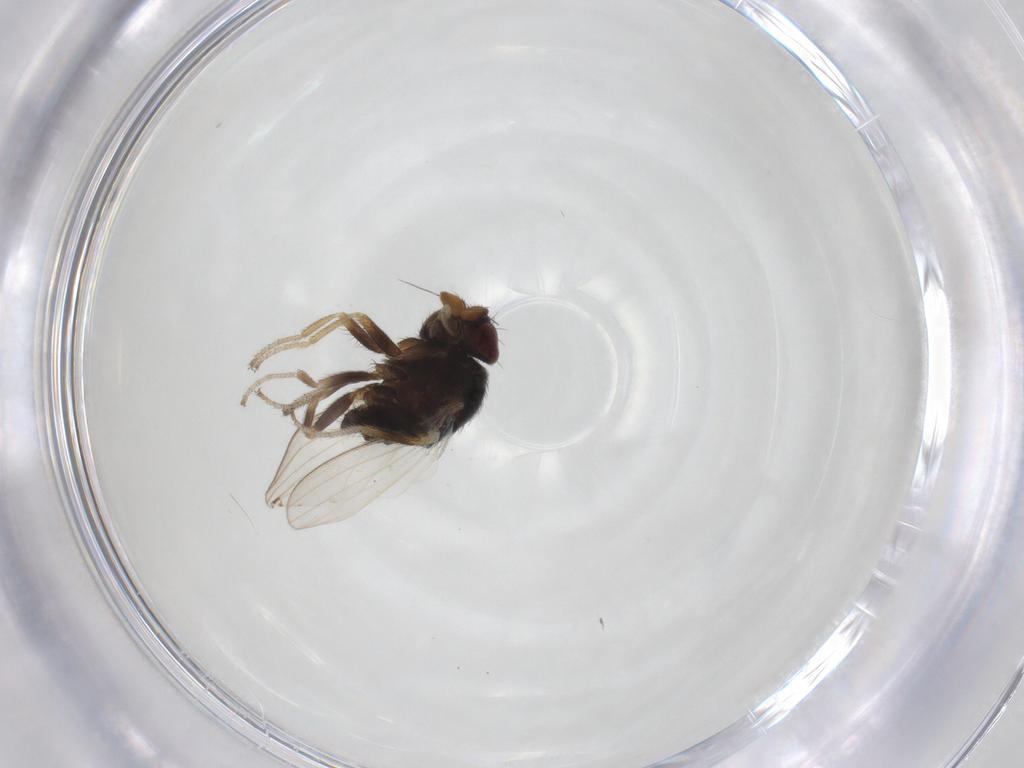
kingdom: Animalia
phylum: Arthropoda
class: Insecta
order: Diptera
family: Milichiidae
